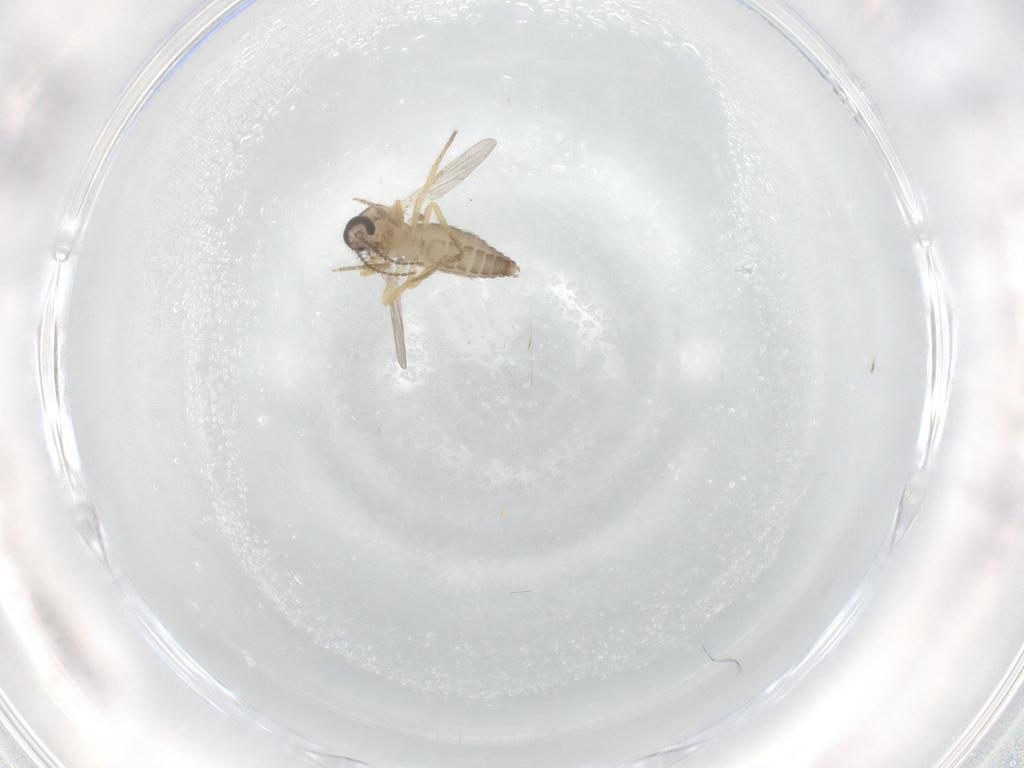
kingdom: Animalia
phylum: Arthropoda
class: Insecta
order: Diptera
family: Ceratopogonidae
